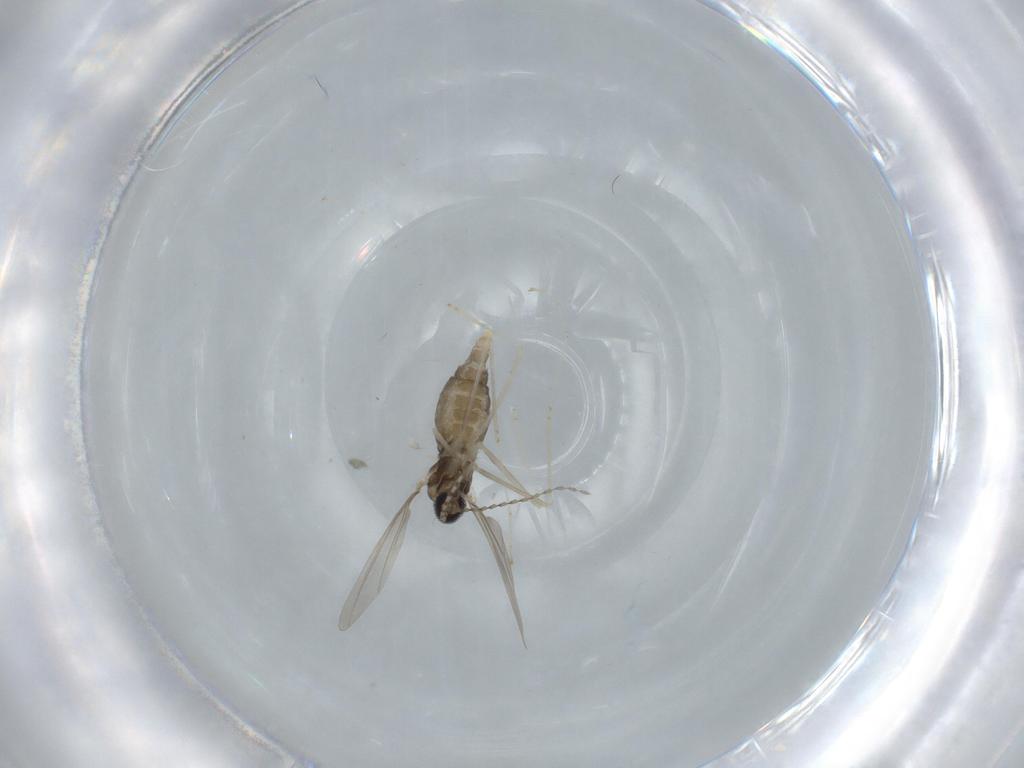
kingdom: Animalia
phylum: Arthropoda
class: Insecta
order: Diptera
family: Cecidomyiidae
